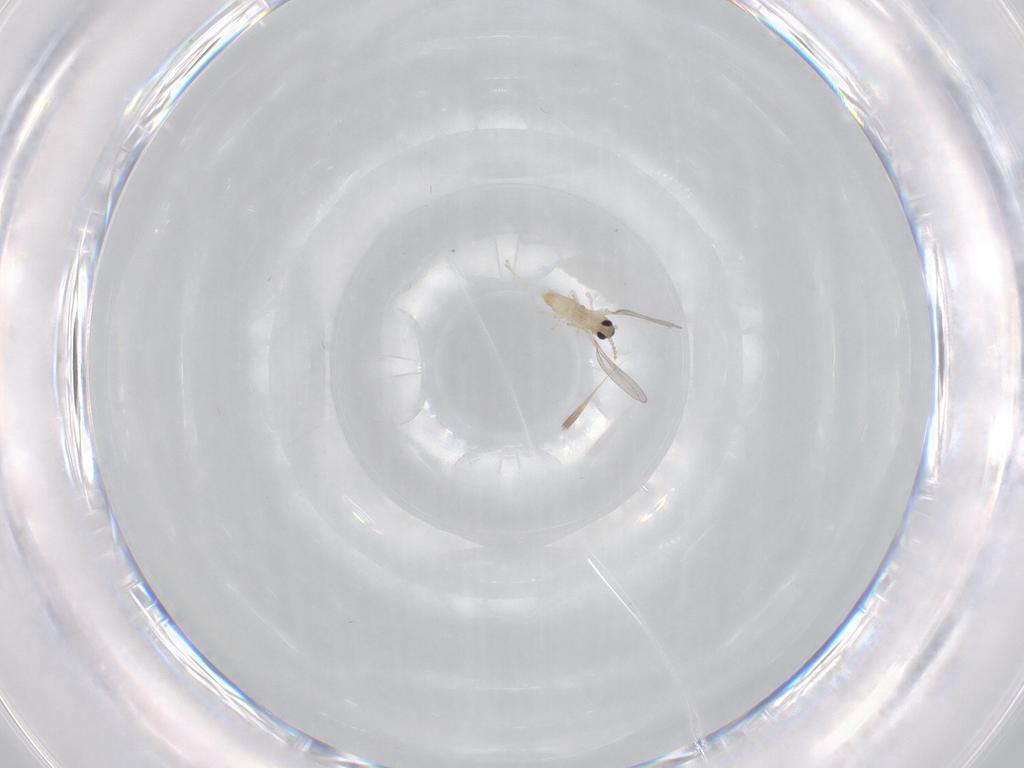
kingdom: Animalia
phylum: Arthropoda
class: Insecta
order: Diptera
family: Cecidomyiidae
